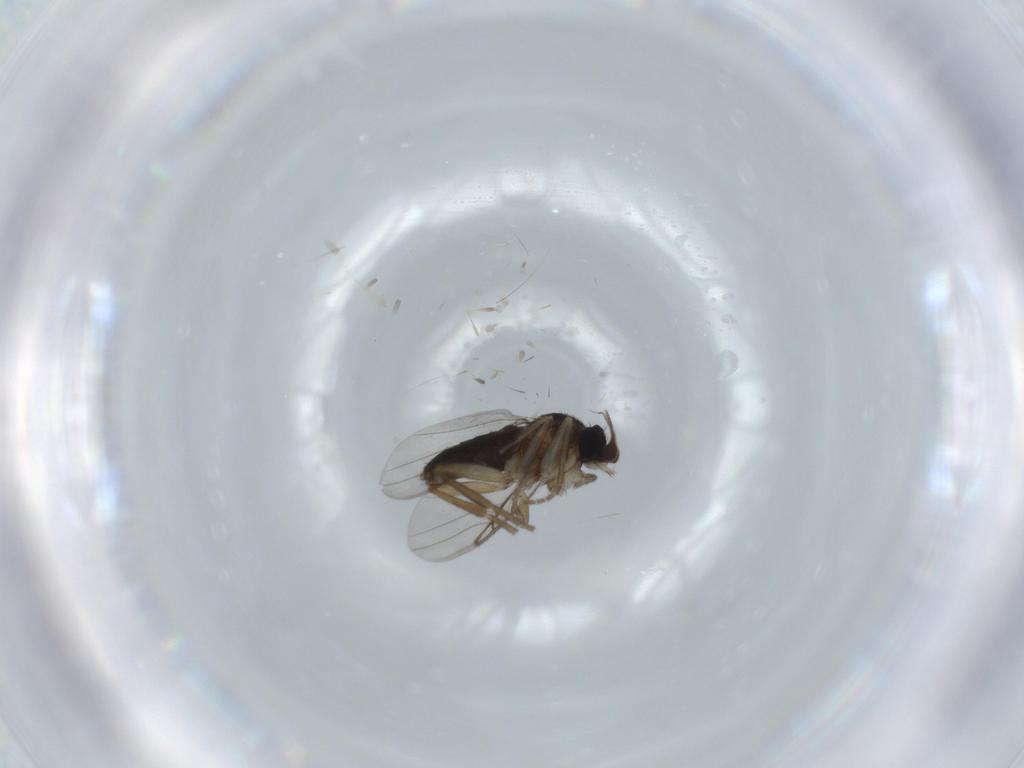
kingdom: Animalia
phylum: Arthropoda
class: Insecta
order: Diptera
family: Phoridae
